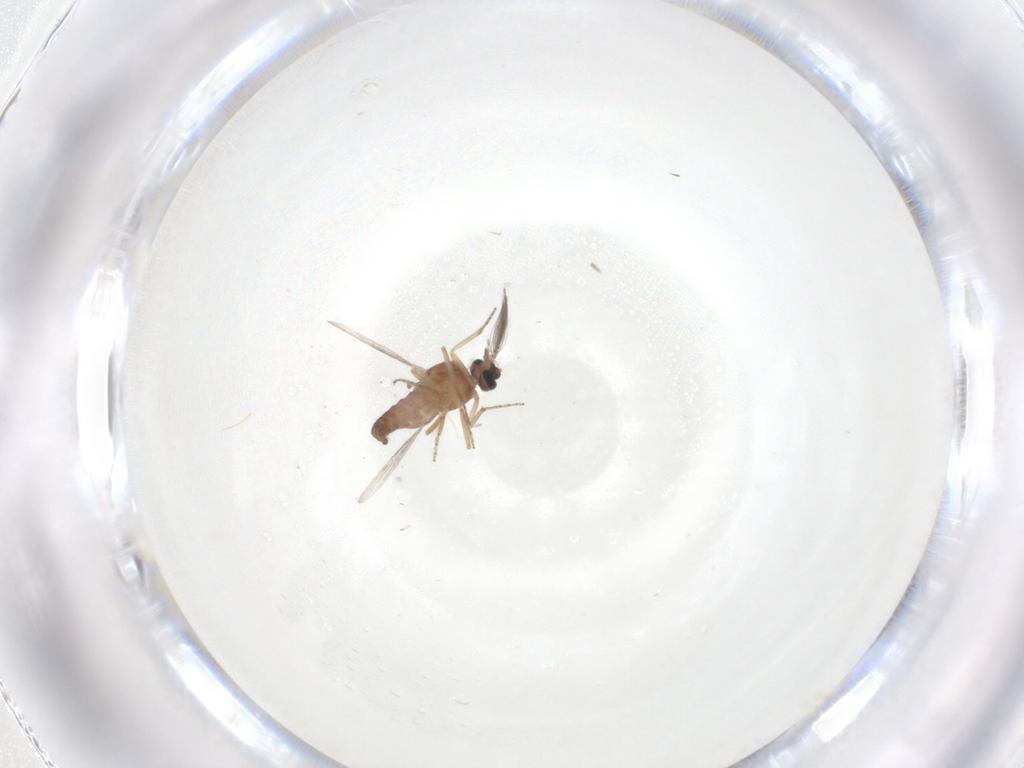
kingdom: Animalia
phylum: Arthropoda
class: Insecta
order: Diptera
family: Ceratopogonidae
